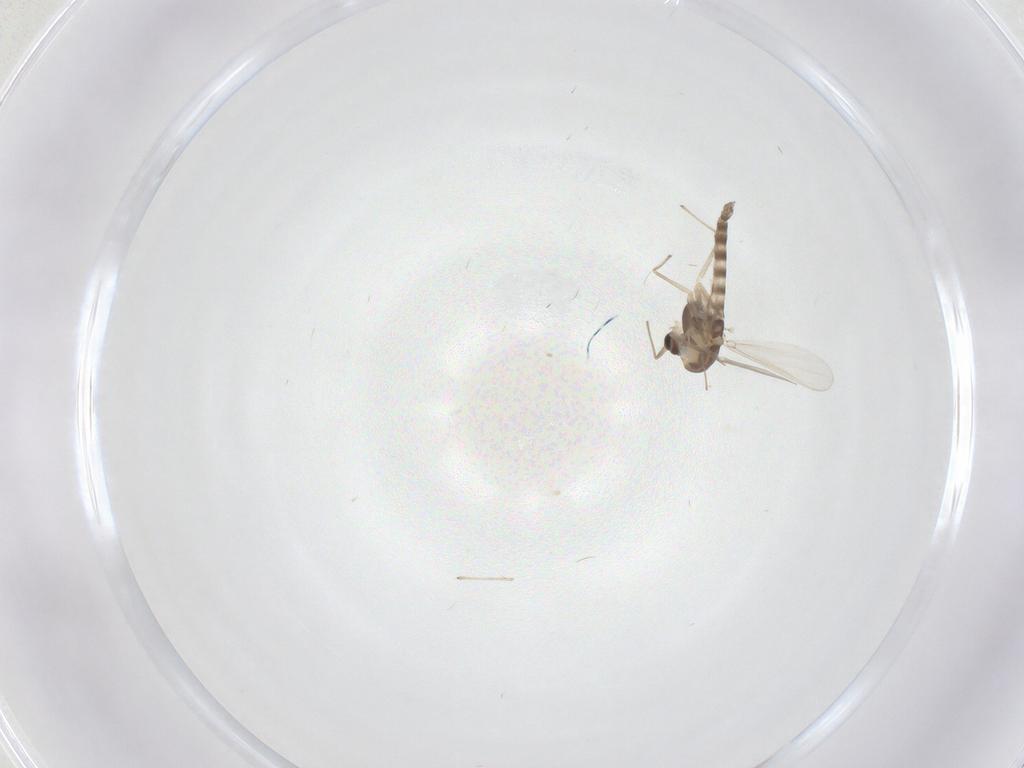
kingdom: Animalia
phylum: Arthropoda
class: Insecta
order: Diptera
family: Chironomidae
